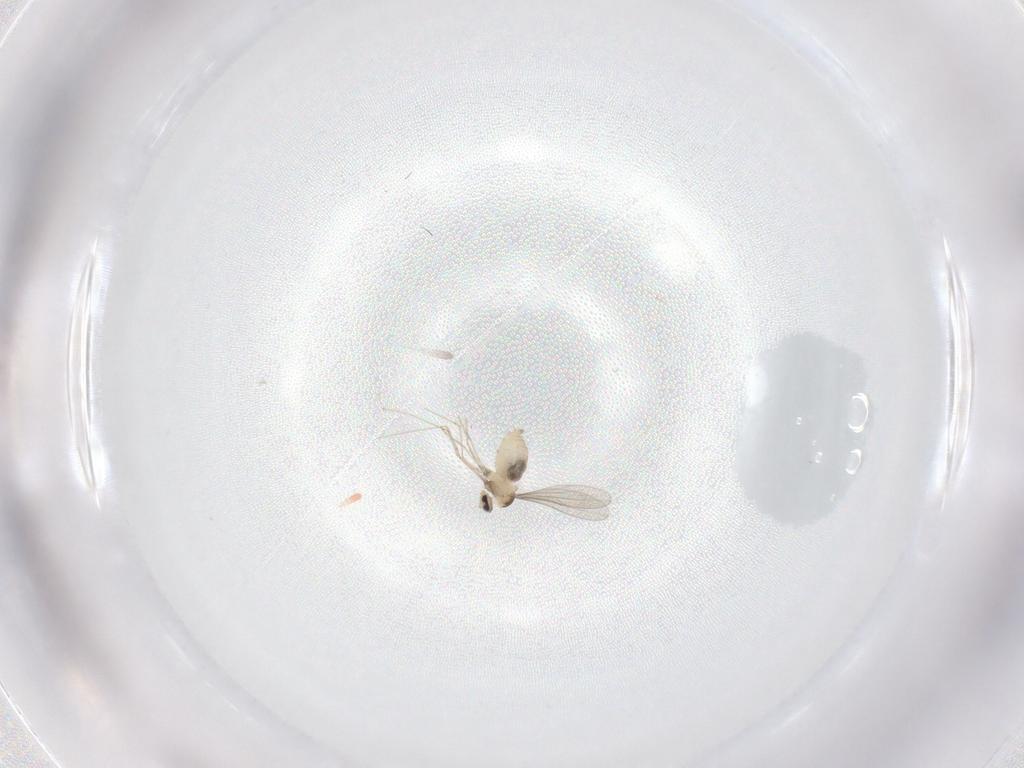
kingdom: Animalia
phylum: Arthropoda
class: Insecta
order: Diptera
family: Cecidomyiidae
